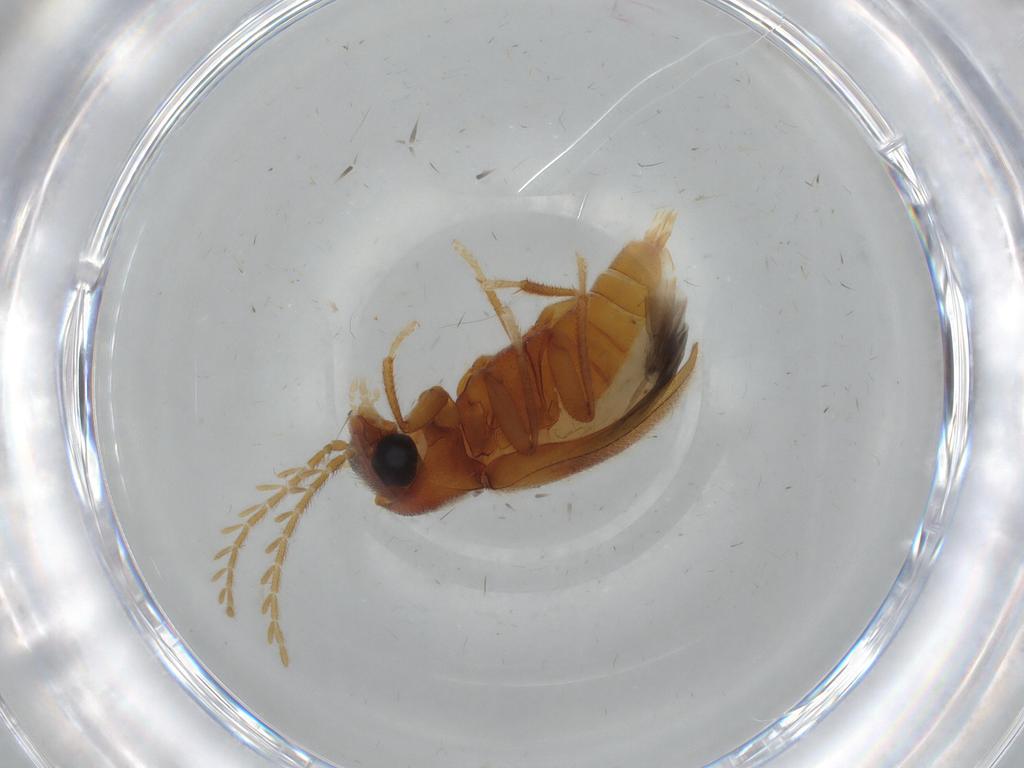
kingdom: Animalia
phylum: Arthropoda
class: Insecta
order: Coleoptera
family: Ptilodactylidae
